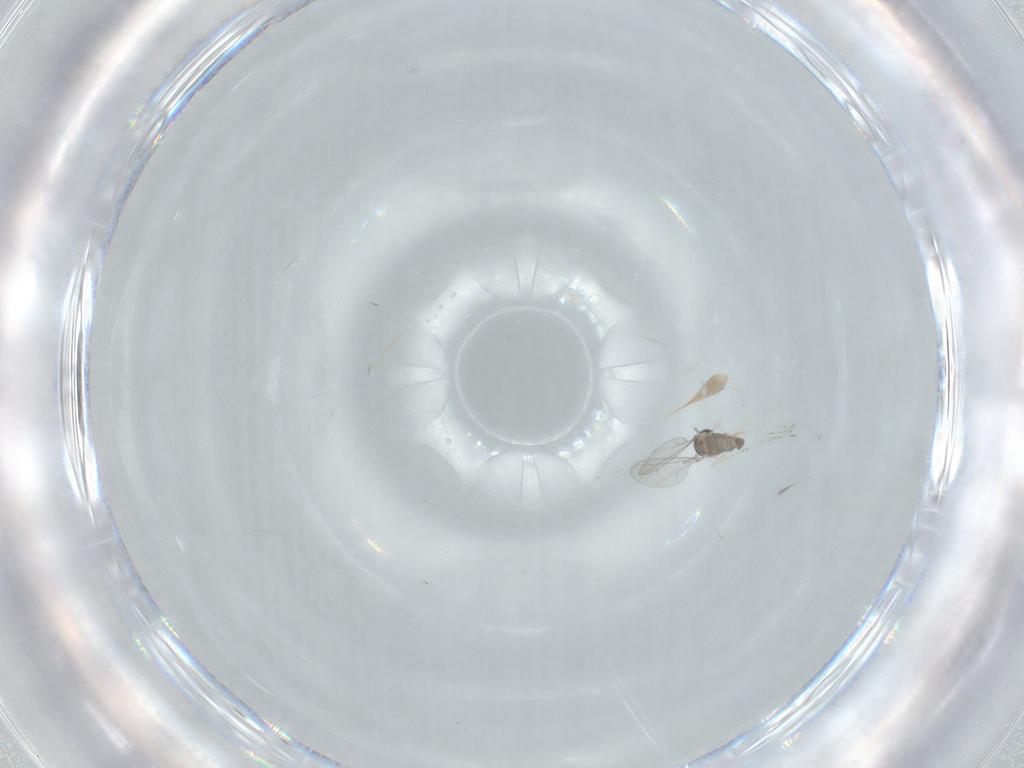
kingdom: Animalia
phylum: Arthropoda
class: Insecta
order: Diptera
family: Cecidomyiidae
